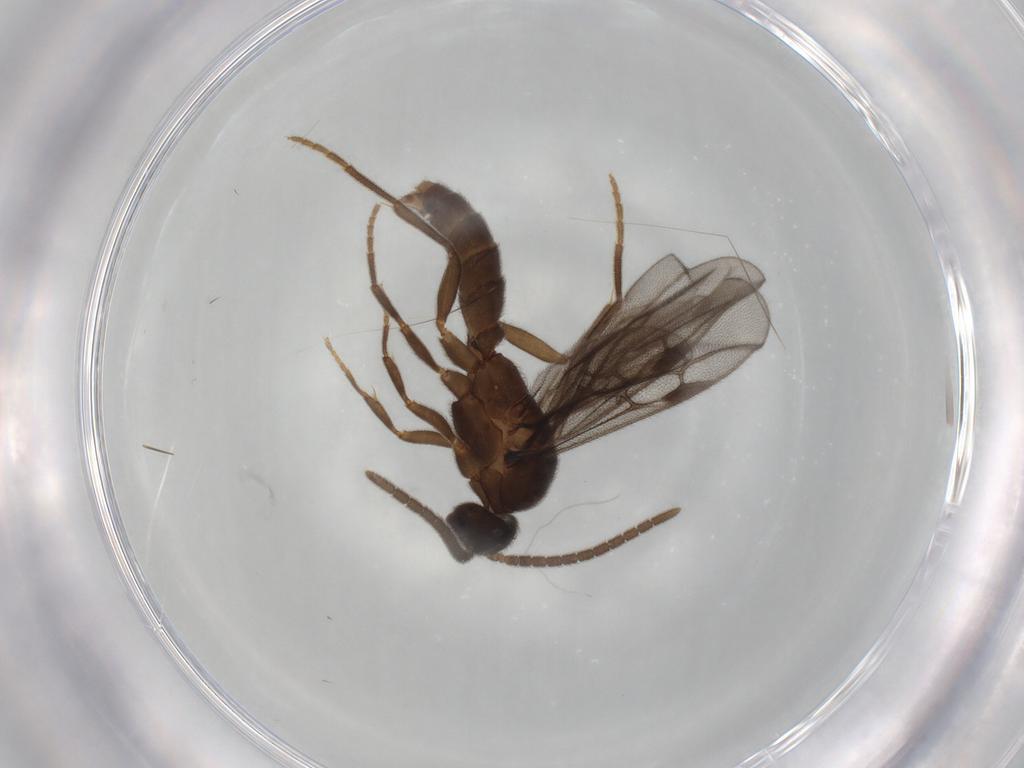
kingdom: Animalia
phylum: Arthropoda
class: Insecta
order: Hymenoptera
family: Formicidae
